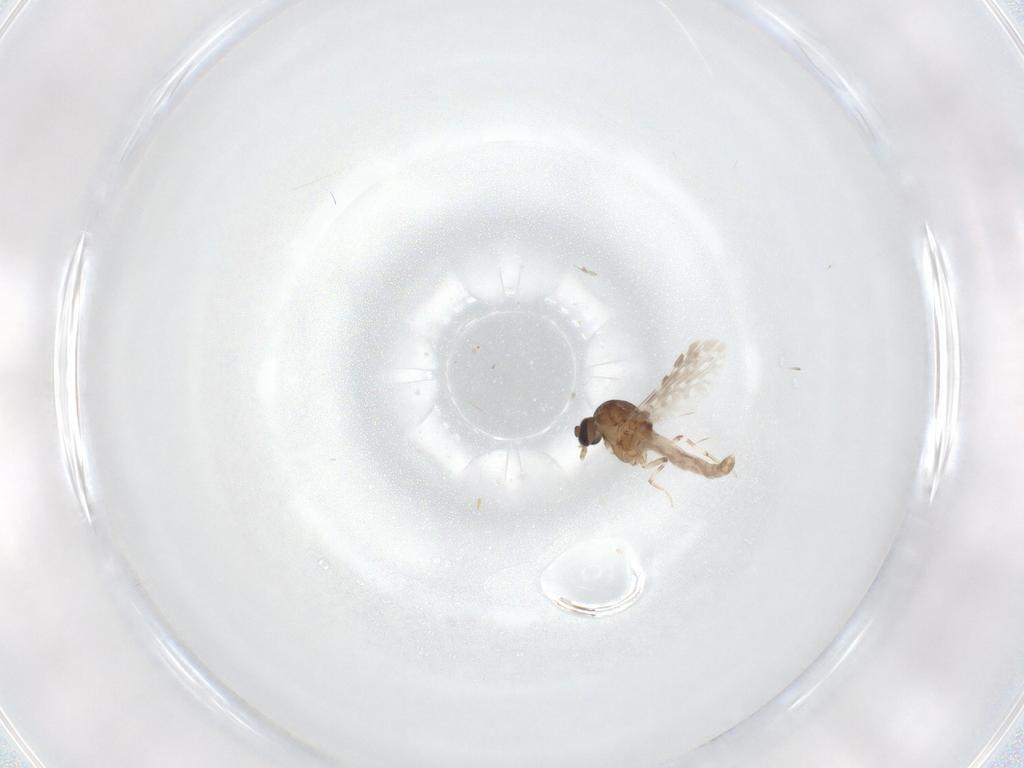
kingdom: Animalia
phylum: Arthropoda
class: Insecta
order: Diptera
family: Ceratopogonidae
